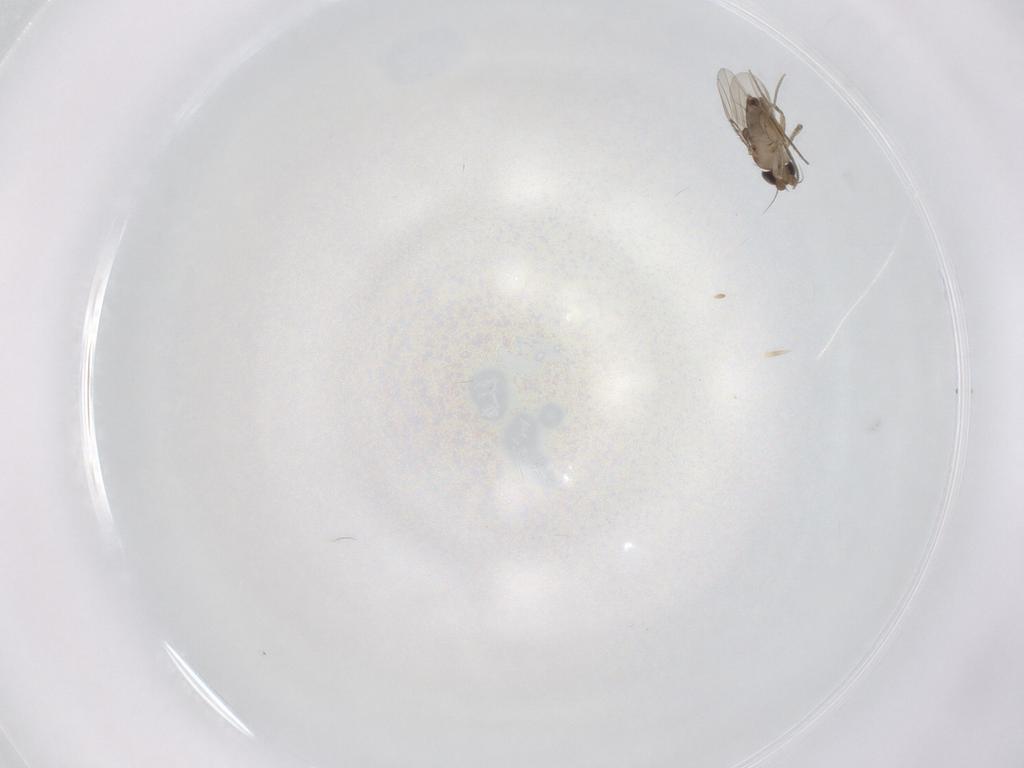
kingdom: Animalia
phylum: Arthropoda
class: Insecta
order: Diptera
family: Phoridae
